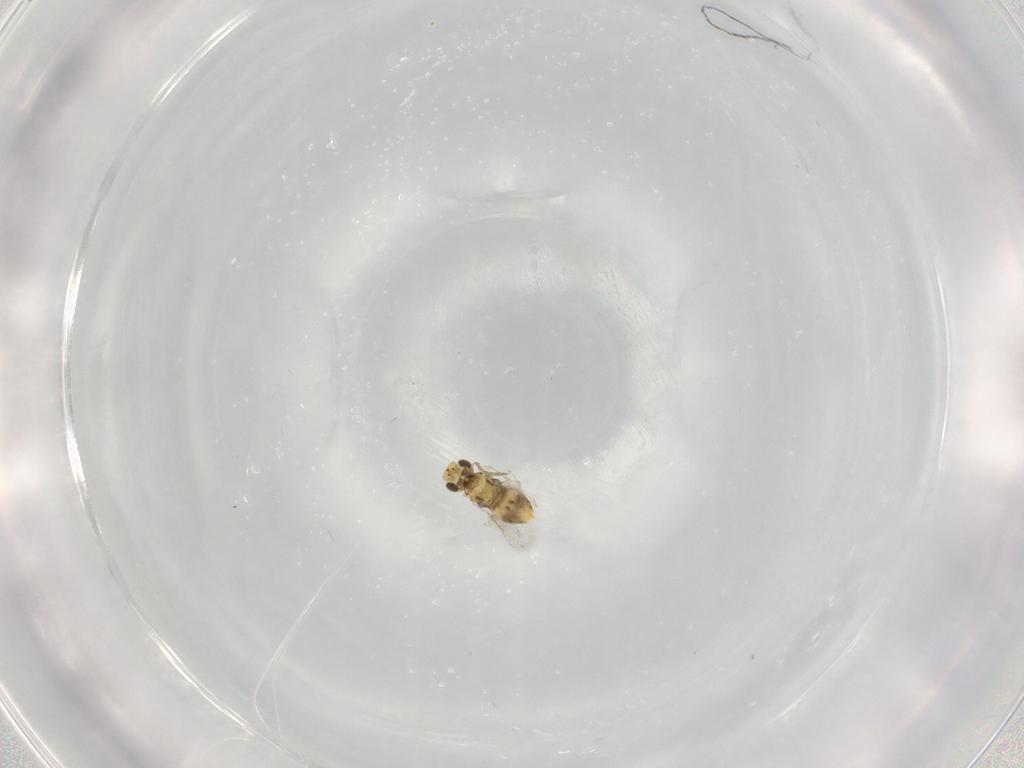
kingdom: Animalia
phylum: Arthropoda
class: Insecta
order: Hymenoptera
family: Aphelinidae
